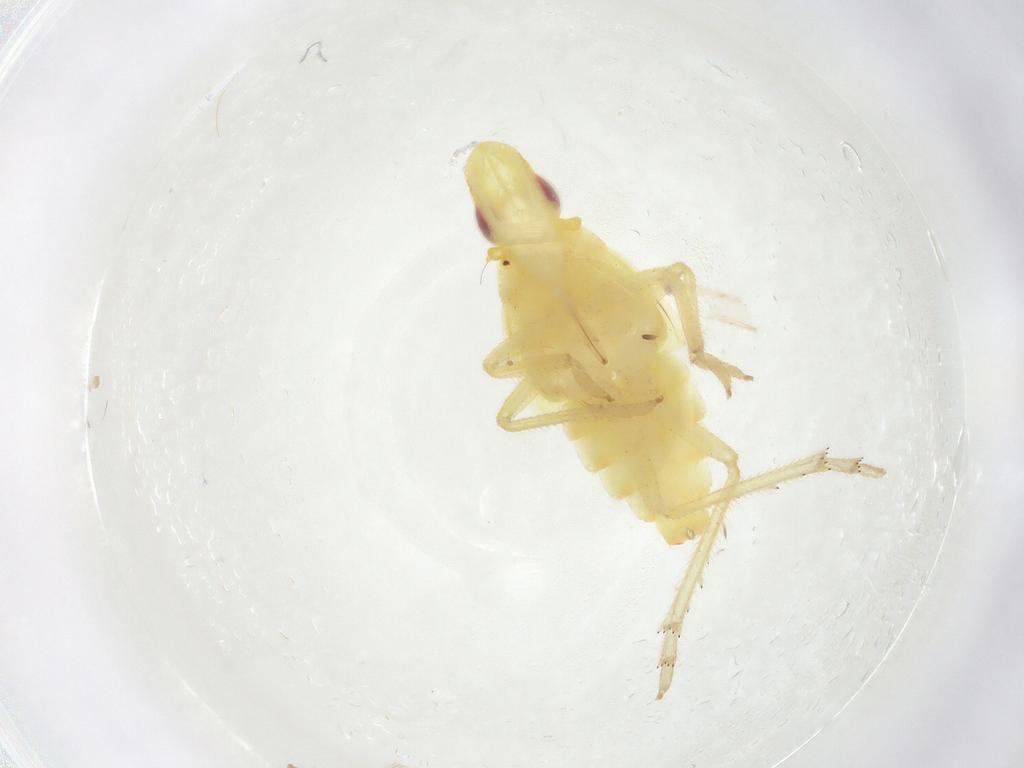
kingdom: Animalia
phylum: Arthropoda
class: Insecta
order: Hemiptera
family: Tropiduchidae
